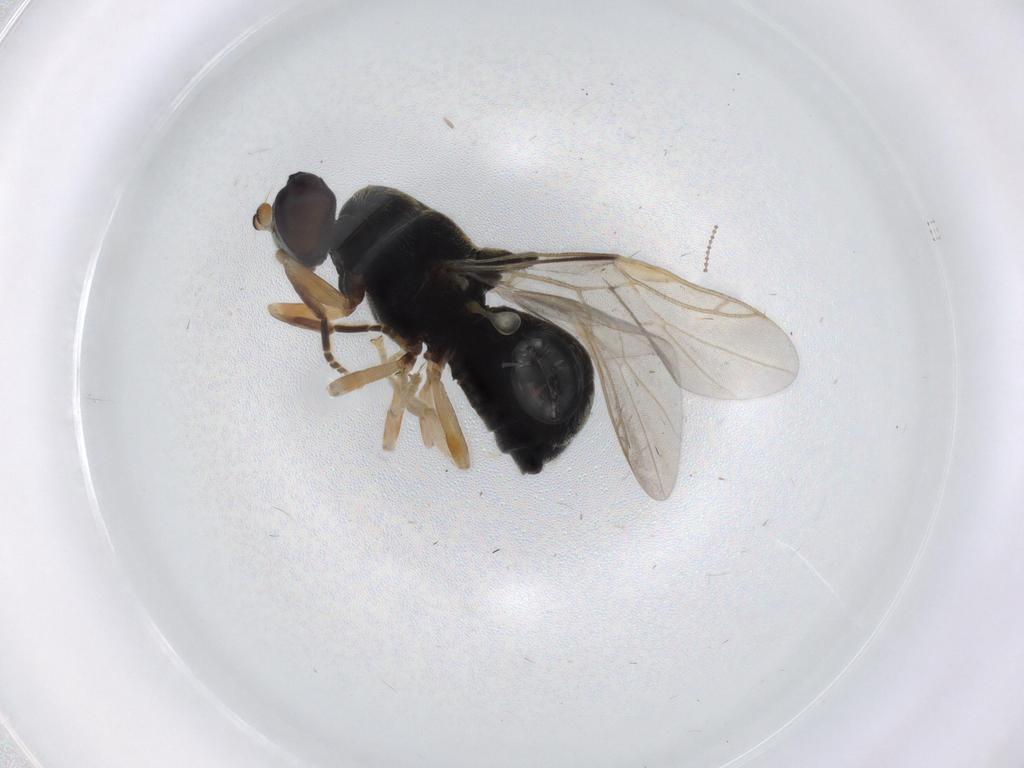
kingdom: Animalia
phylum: Arthropoda
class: Insecta
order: Diptera
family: Stratiomyidae
